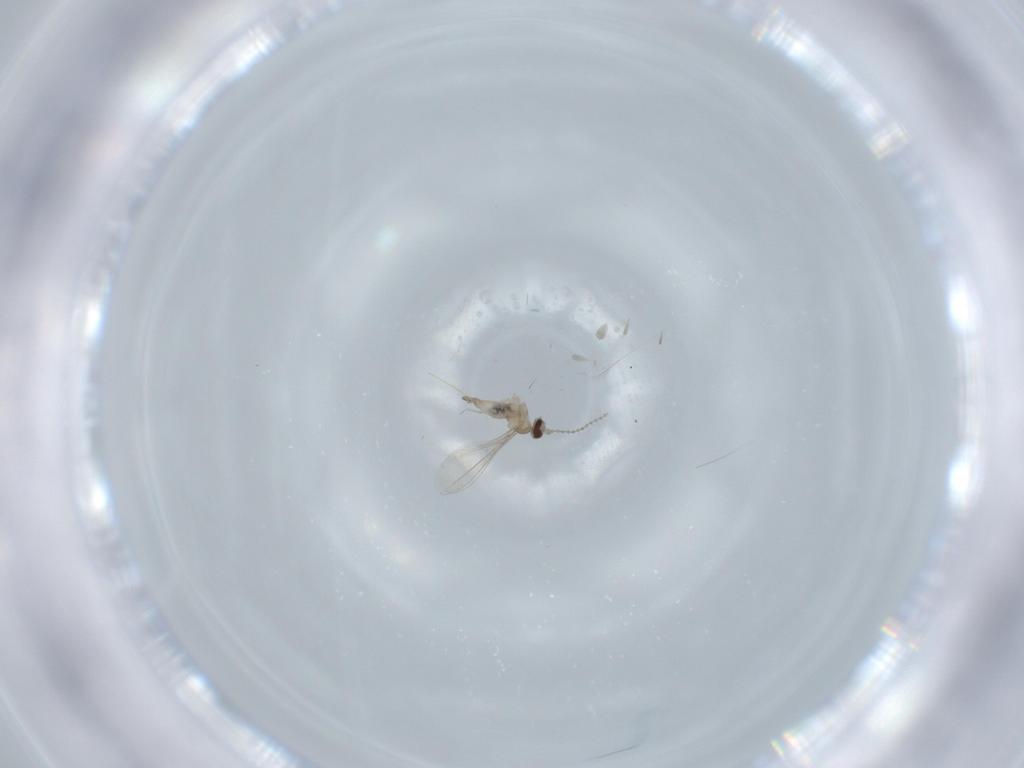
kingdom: Animalia
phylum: Arthropoda
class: Insecta
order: Diptera
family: Cecidomyiidae
